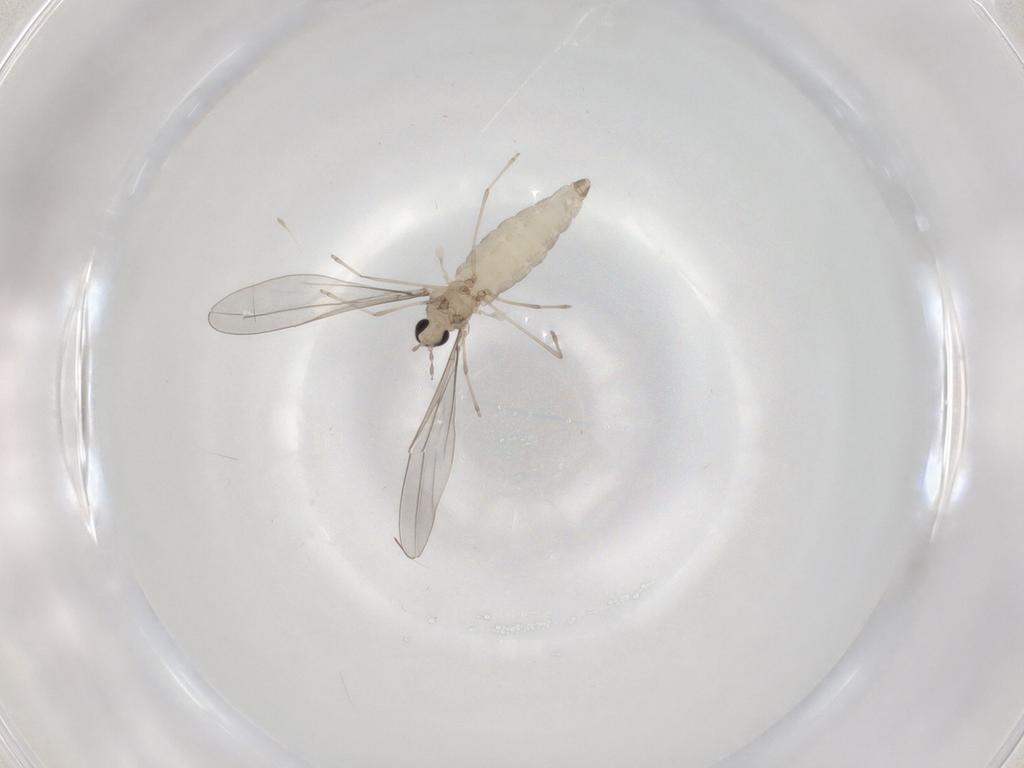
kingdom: Animalia
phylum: Arthropoda
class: Insecta
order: Diptera
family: Cecidomyiidae
